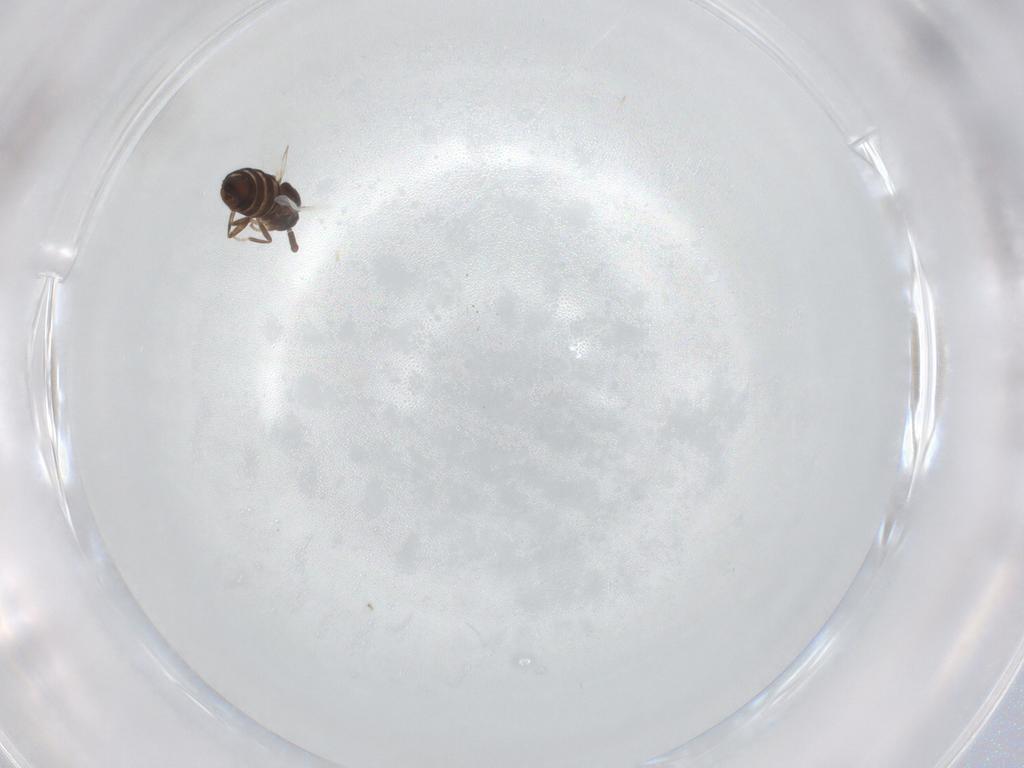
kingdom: Animalia
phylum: Arthropoda
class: Insecta
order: Diptera
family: Scatopsidae
